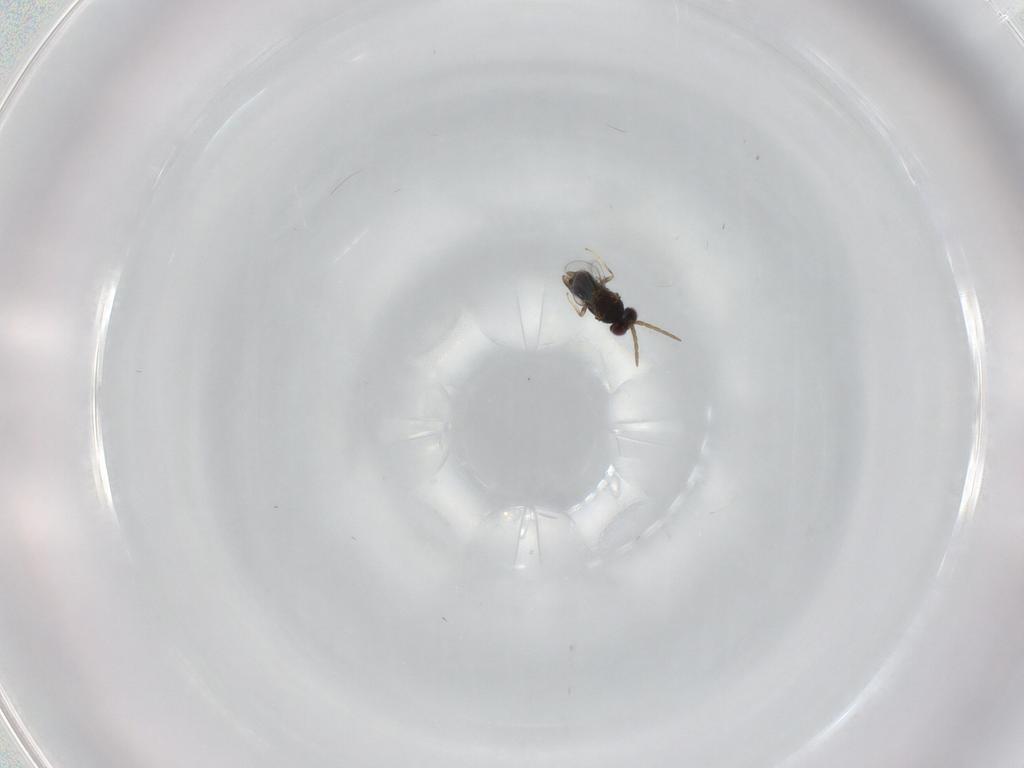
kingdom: Animalia
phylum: Arthropoda
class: Insecta
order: Hymenoptera
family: Aphelinidae
